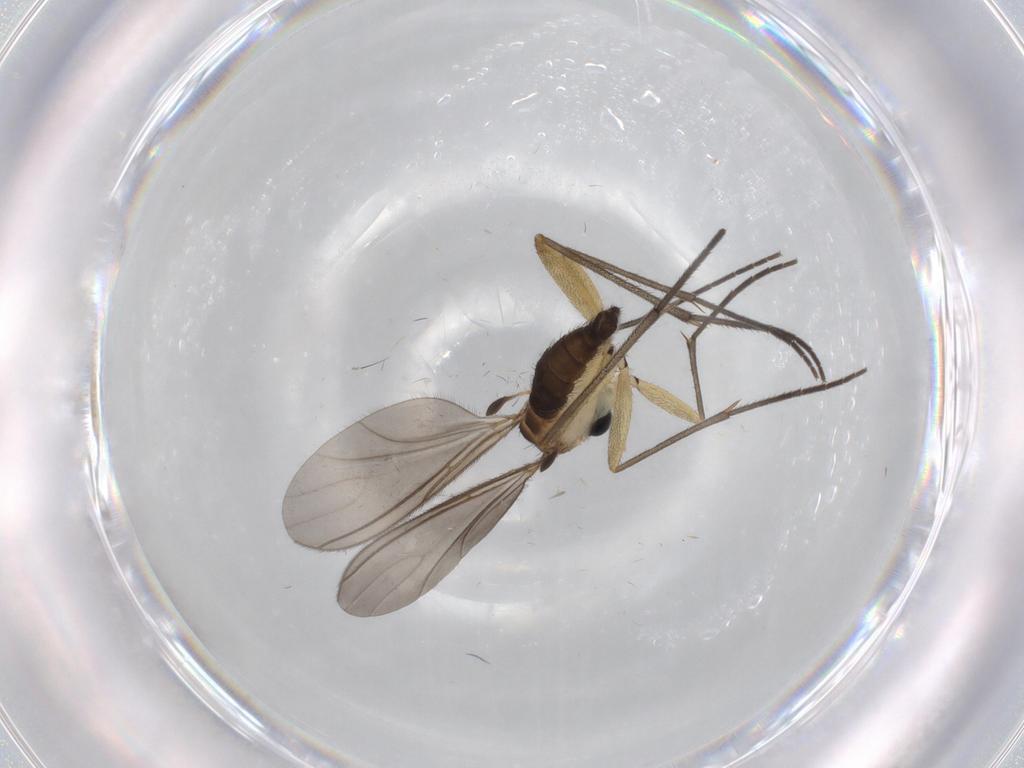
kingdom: Animalia
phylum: Arthropoda
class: Insecta
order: Diptera
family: Sciaridae
